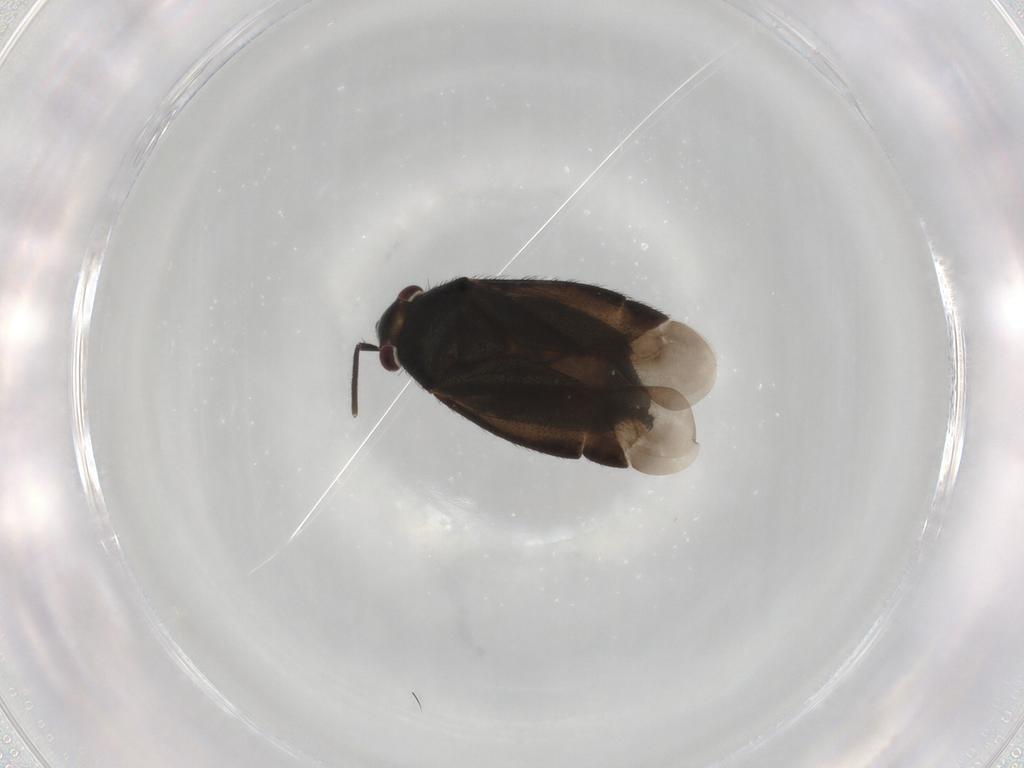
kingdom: Animalia
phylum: Arthropoda
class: Insecta
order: Hemiptera
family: Miridae
